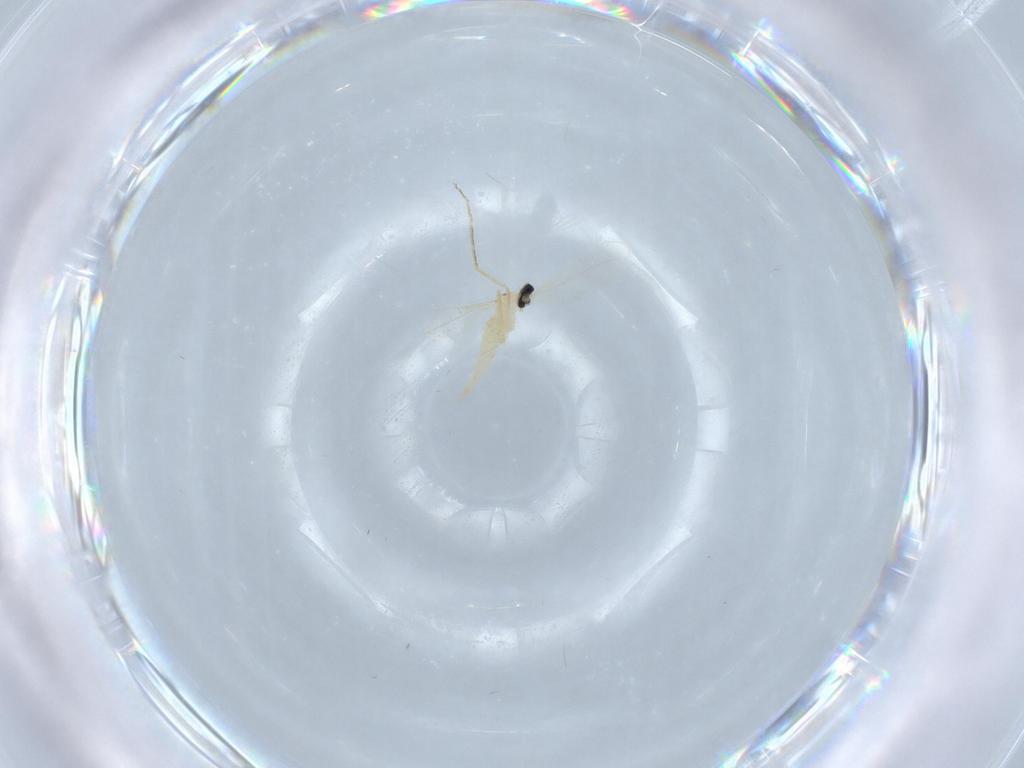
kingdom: Animalia
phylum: Arthropoda
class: Insecta
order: Diptera
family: Cecidomyiidae
